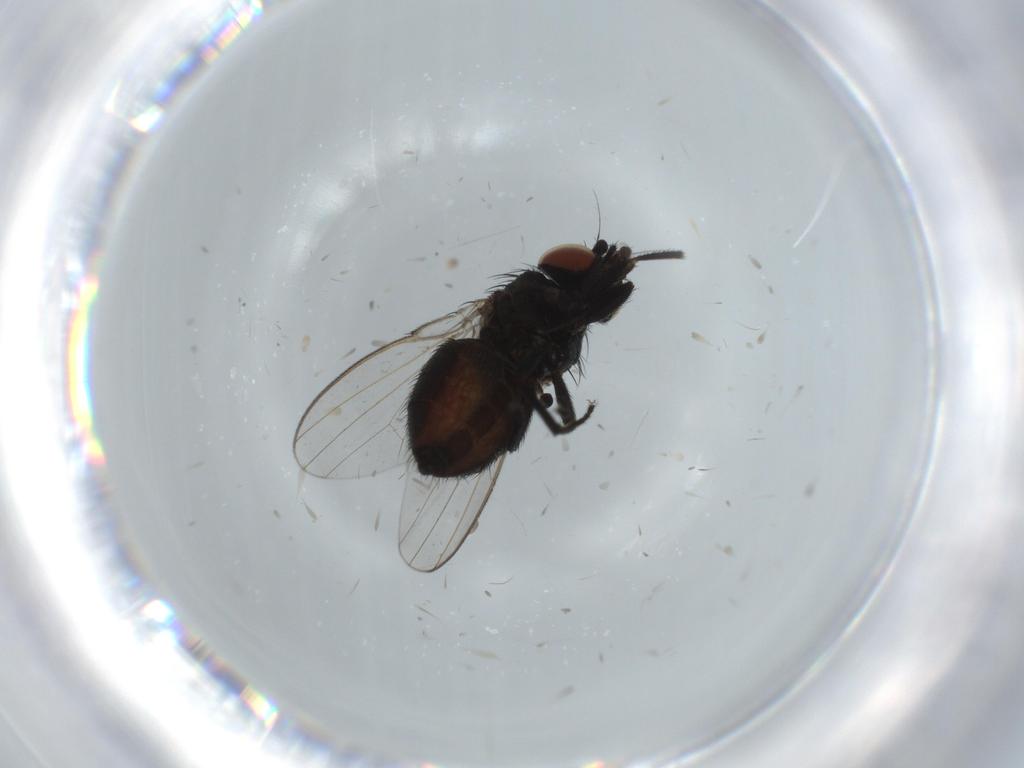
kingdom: Animalia
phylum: Arthropoda
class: Insecta
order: Diptera
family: Milichiidae
